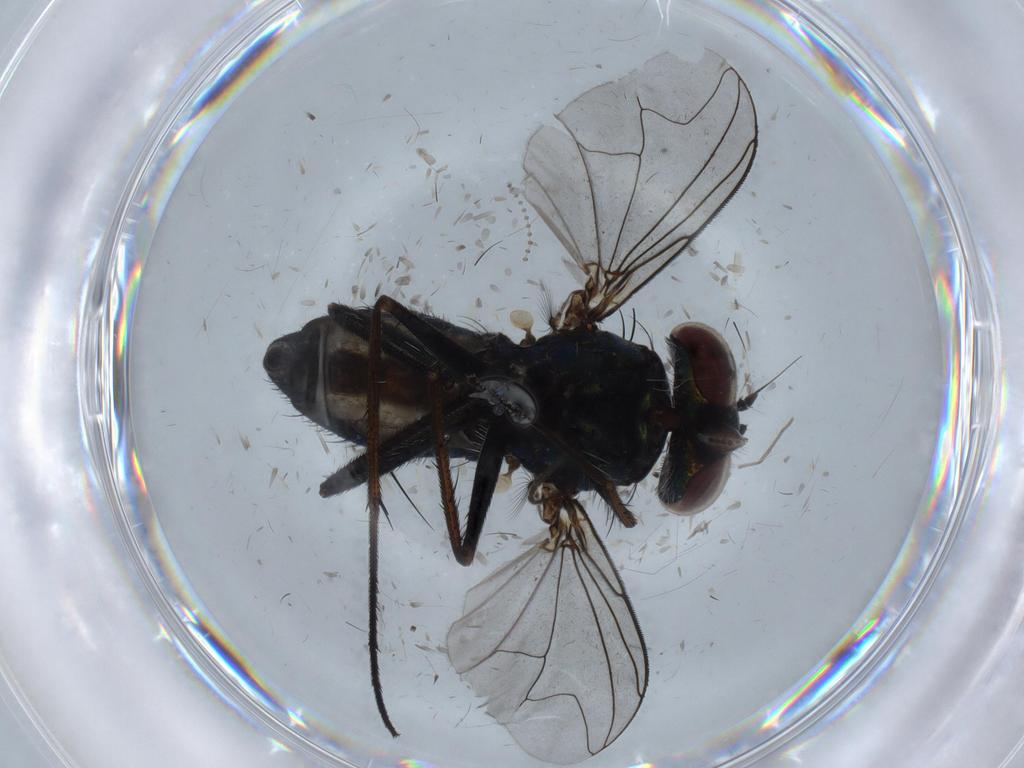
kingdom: Animalia
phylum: Arthropoda
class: Insecta
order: Diptera
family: Dolichopodidae
